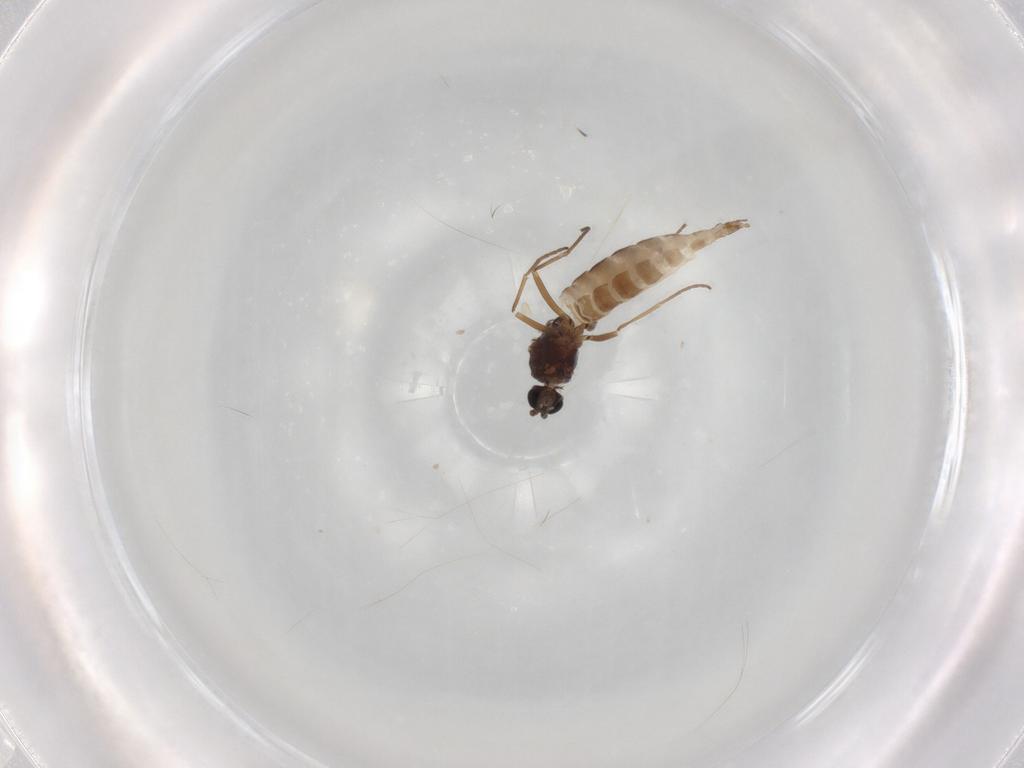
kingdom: Animalia
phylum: Arthropoda
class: Insecta
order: Diptera
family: Sciaridae
